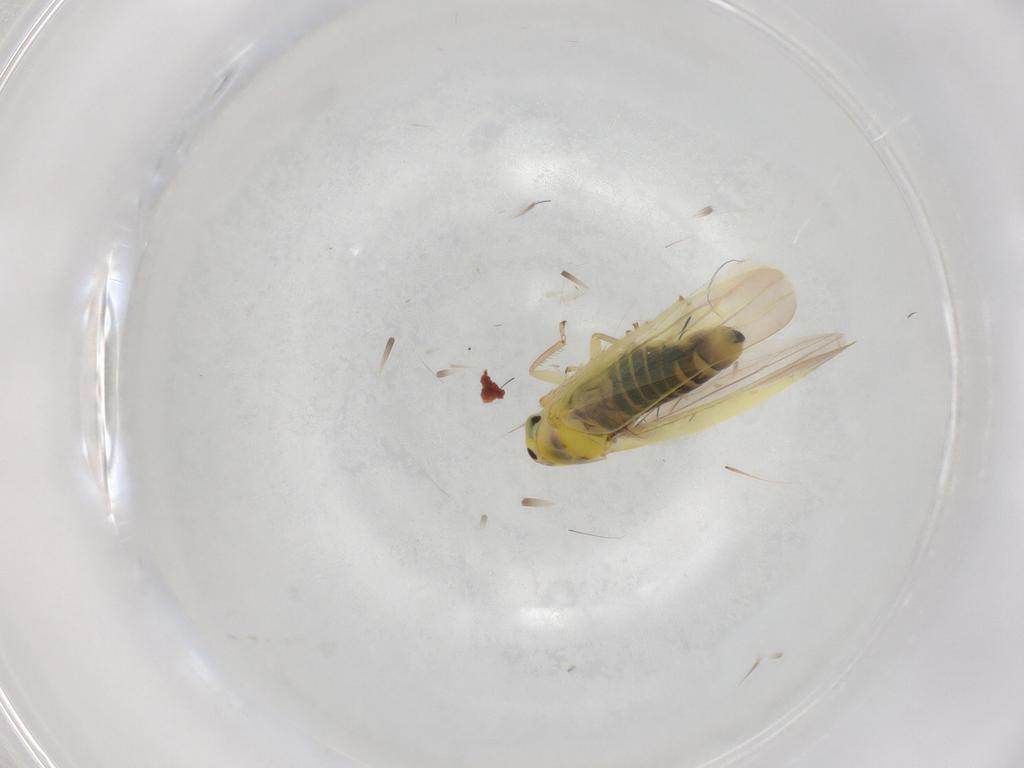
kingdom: Animalia
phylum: Arthropoda
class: Insecta
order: Hemiptera
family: Cicadellidae
